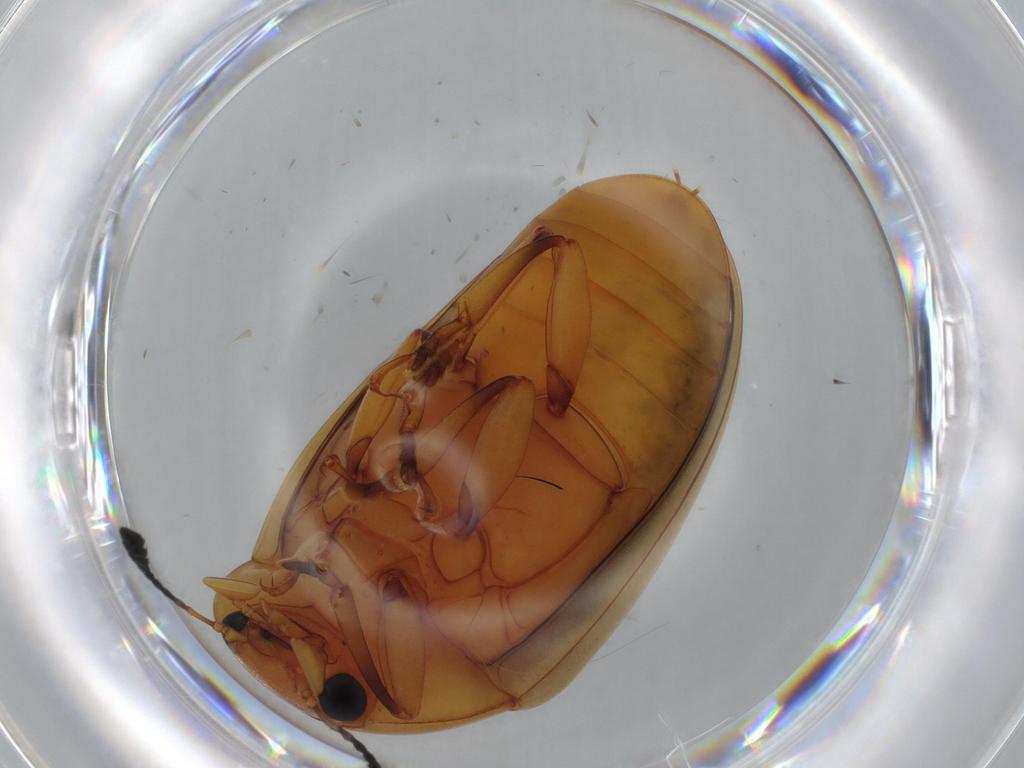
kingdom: Animalia
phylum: Arthropoda
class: Insecta
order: Coleoptera
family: Erotylidae
